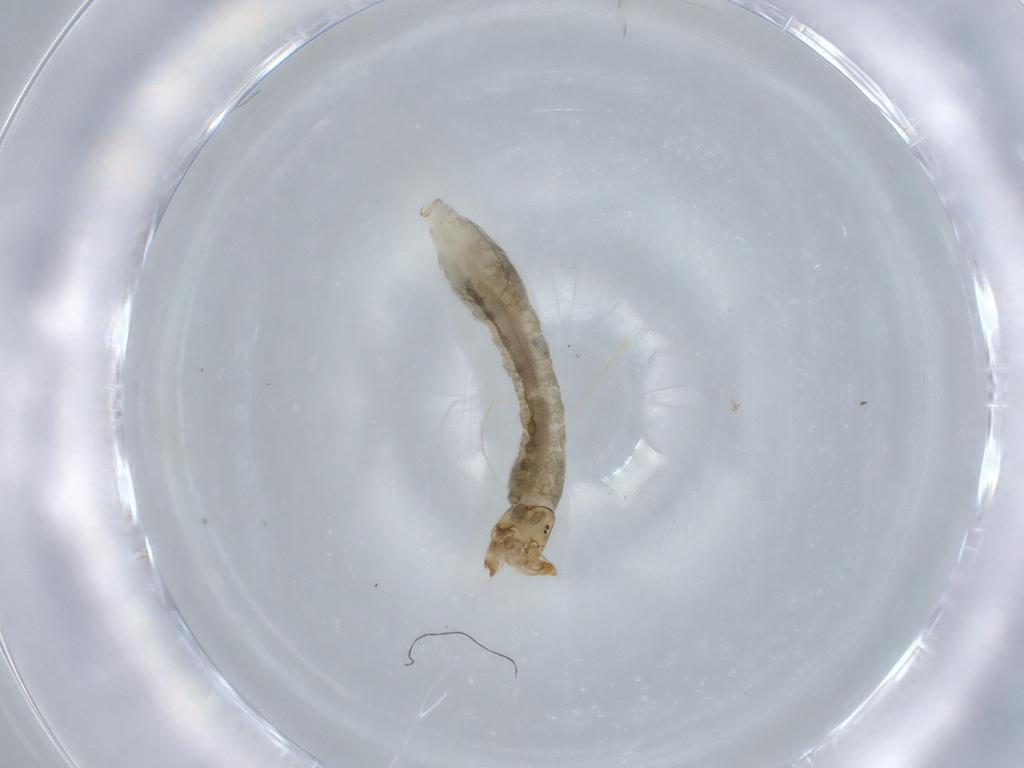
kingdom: Animalia
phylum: Arthropoda
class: Insecta
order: Diptera
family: Simuliidae
